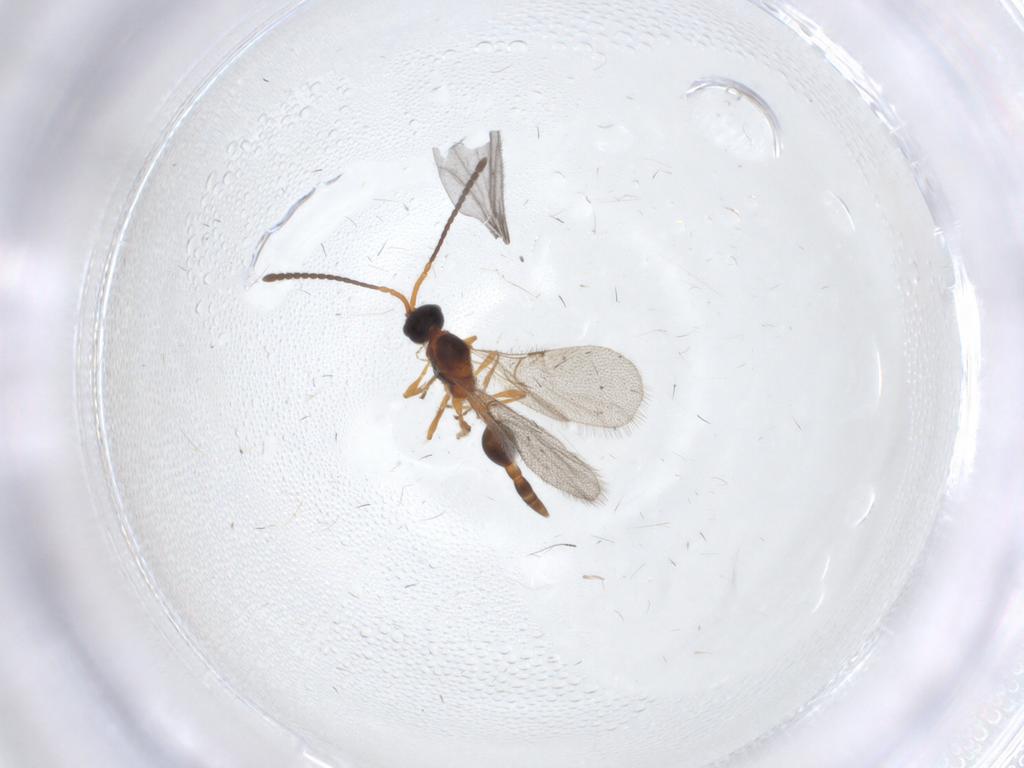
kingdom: Animalia
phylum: Arthropoda
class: Insecta
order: Hymenoptera
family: Diapriidae
